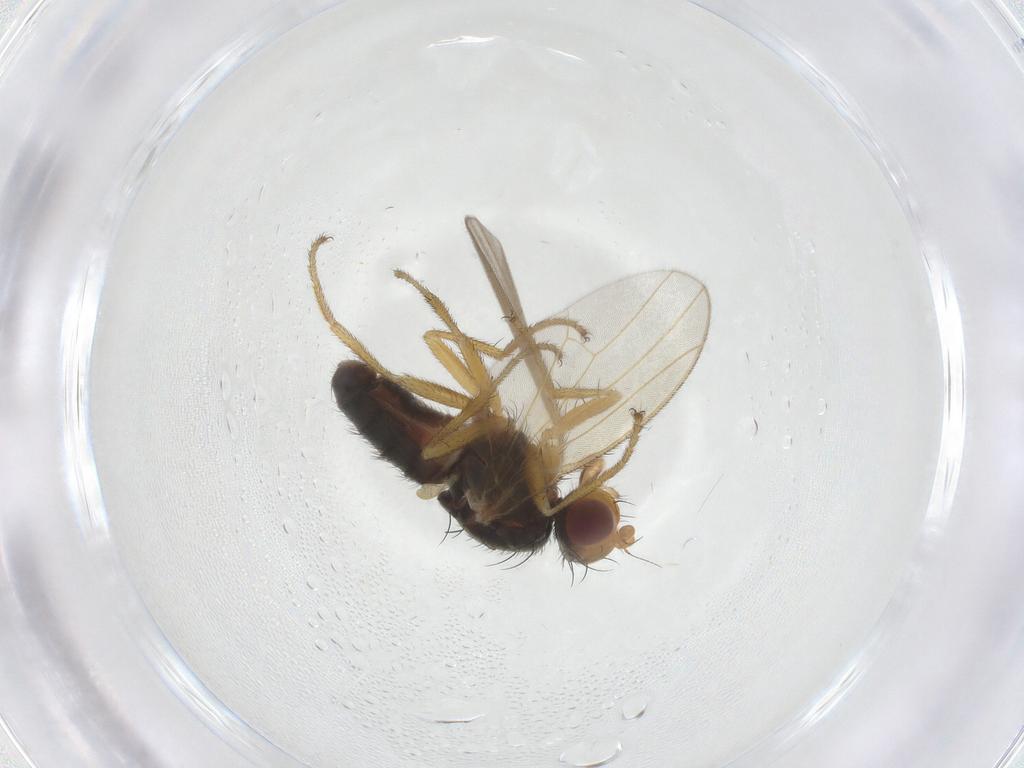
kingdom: Animalia
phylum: Arthropoda
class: Insecta
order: Diptera
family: Heleomyzidae
